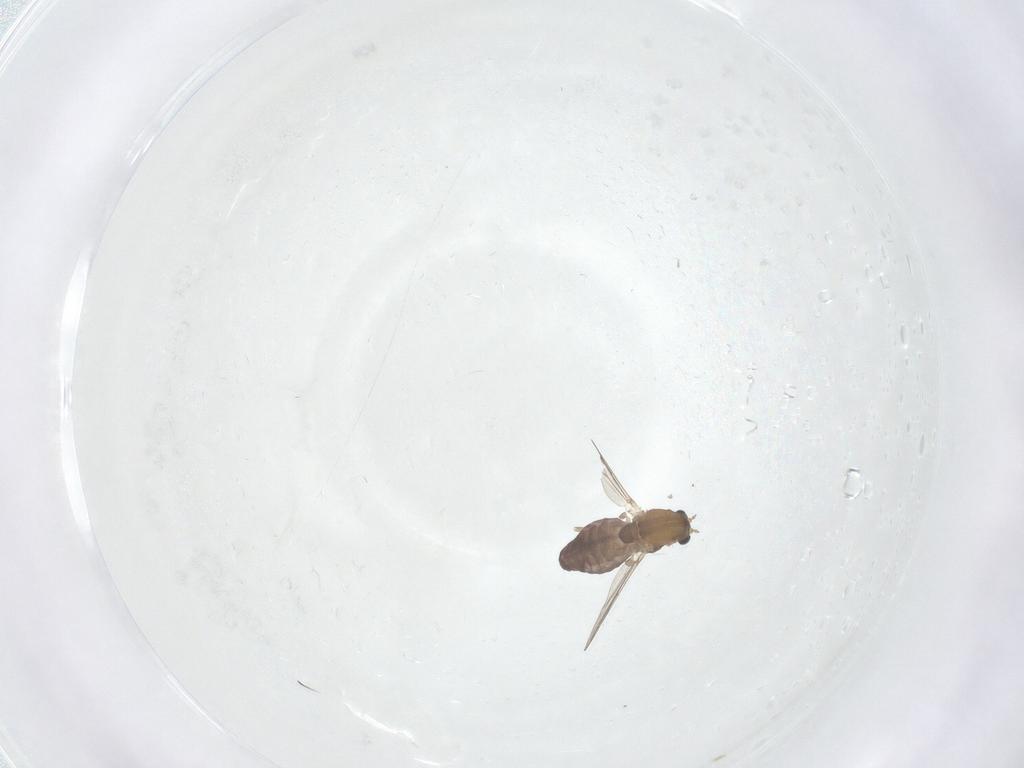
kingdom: Animalia
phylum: Arthropoda
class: Insecta
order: Diptera
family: Chironomidae
